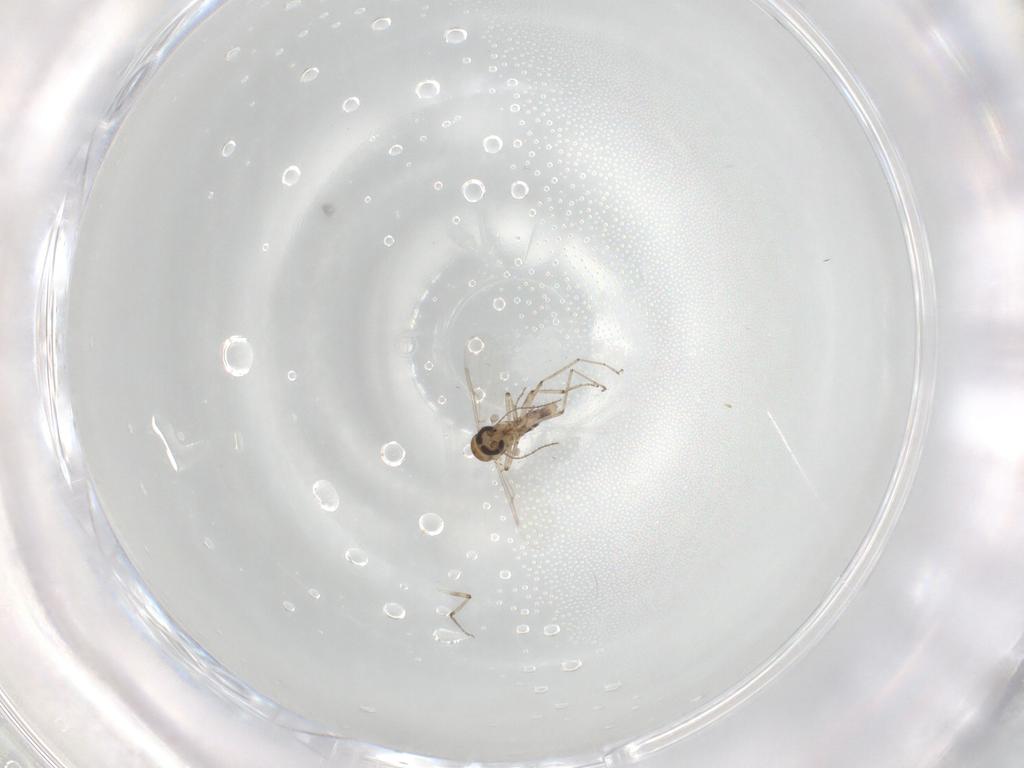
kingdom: Animalia
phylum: Arthropoda
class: Insecta
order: Diptera
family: Ceratopogonidae
